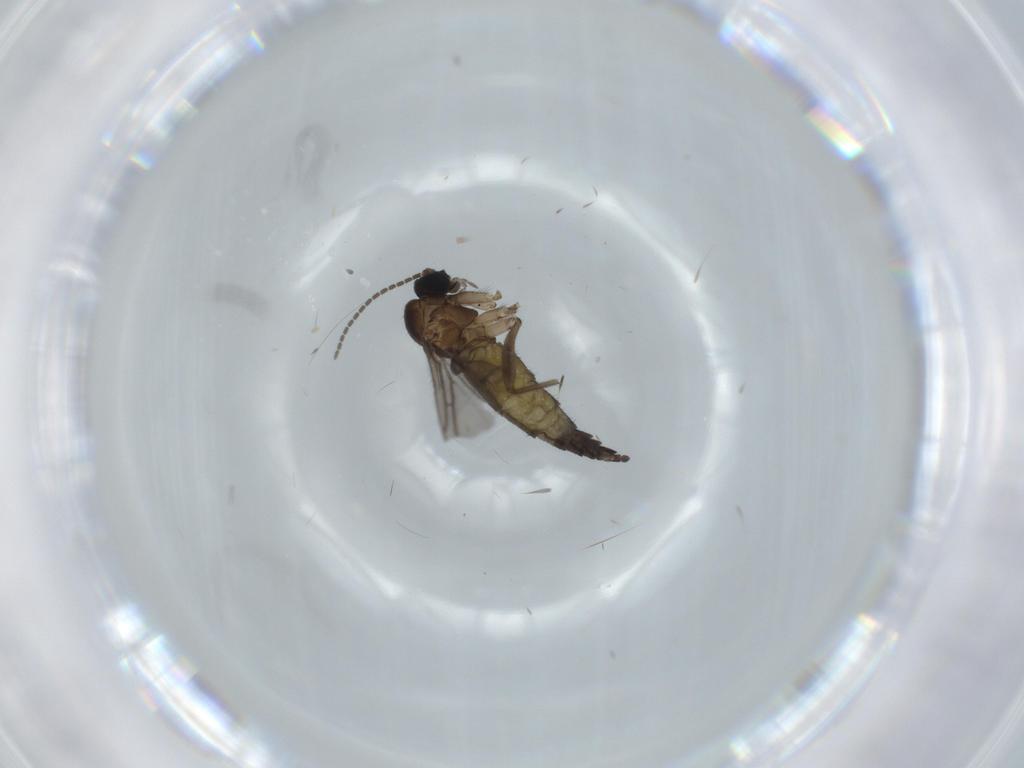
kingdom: Animalia
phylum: Arthropoda
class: Insecta
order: Diptera
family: Sciaridae
